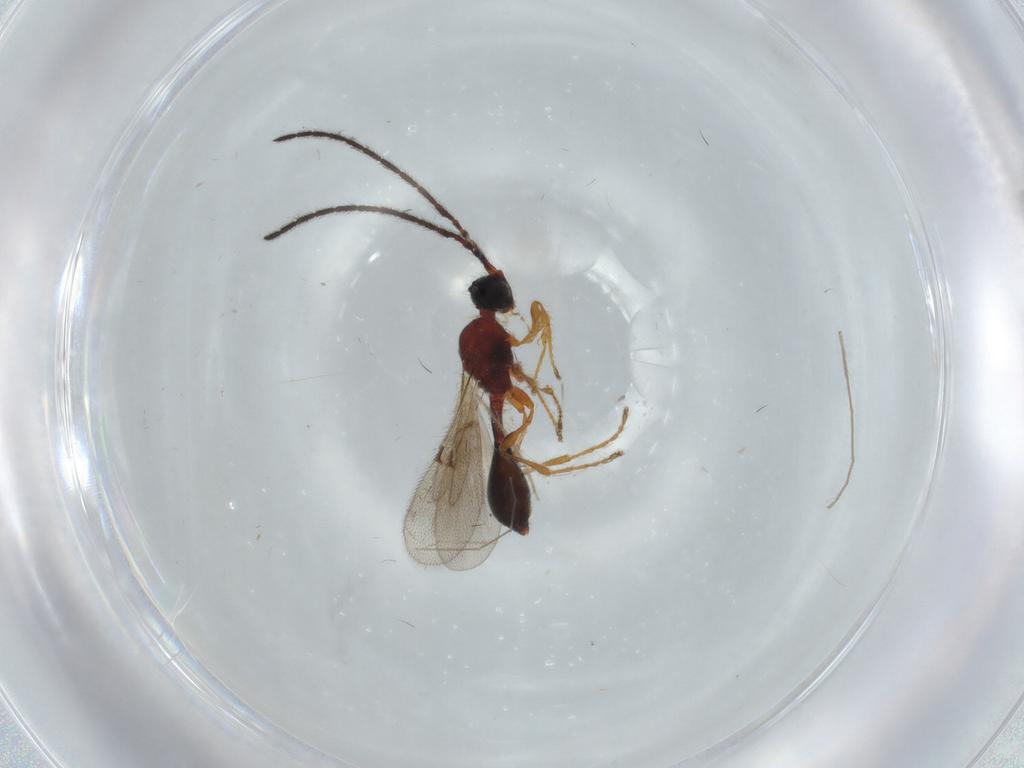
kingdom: Animalia
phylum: Arthropoda
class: Insecta
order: Hymenoptera
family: Diapriidae
